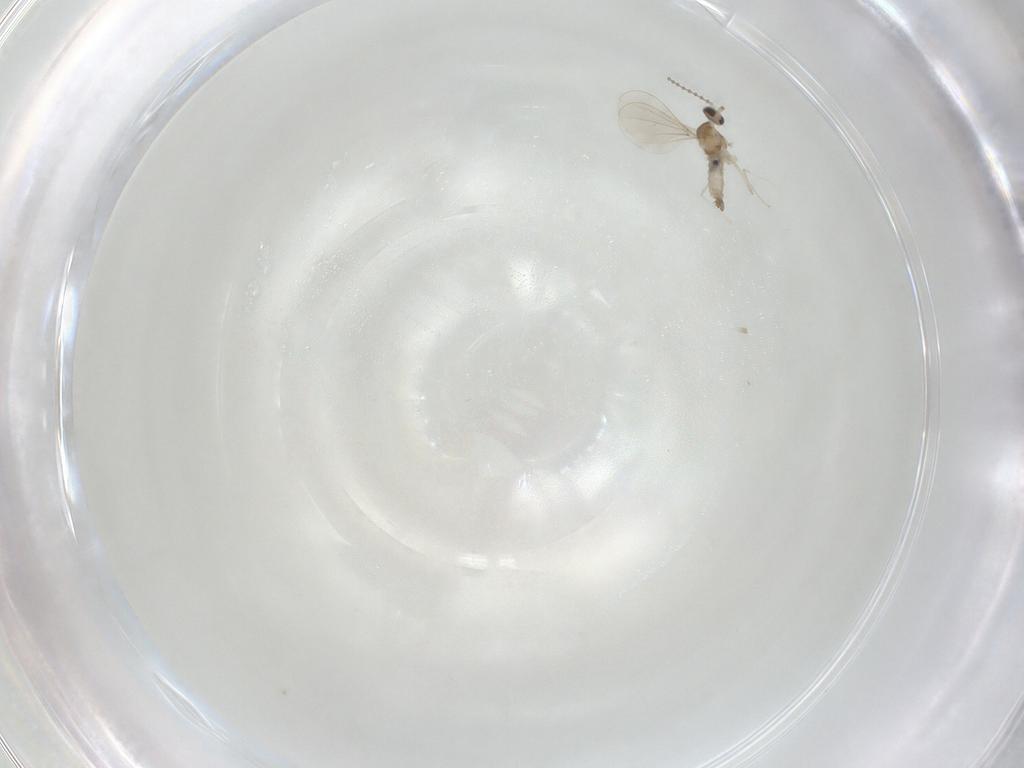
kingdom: Animalia
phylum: Arthropoda
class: Insecta
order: Diptera
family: Cecidomyiidae
